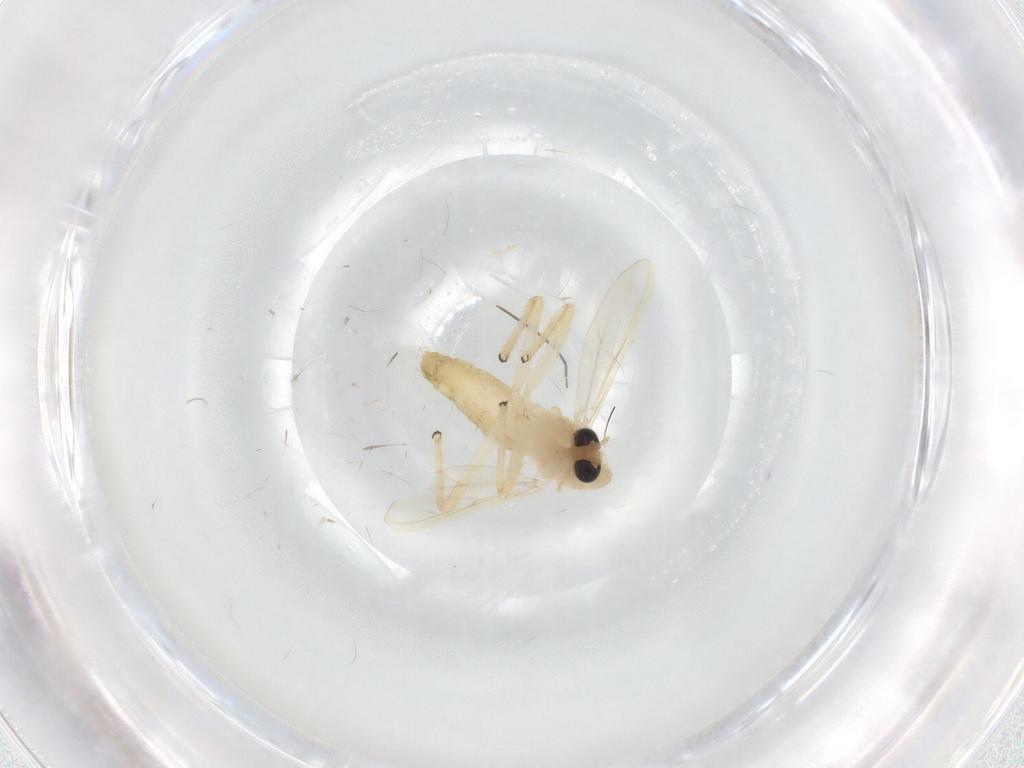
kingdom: Animalia
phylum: Arthropoda
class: Insecta
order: Diptera
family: Chironomidae
